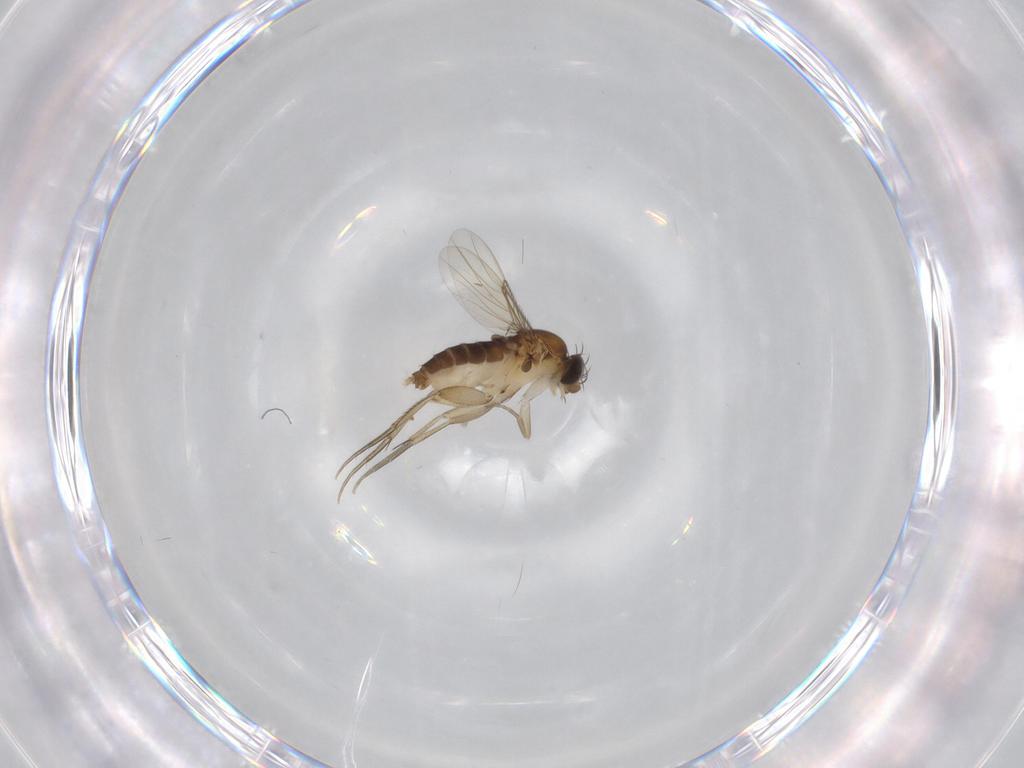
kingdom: Animalia
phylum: Arthropoda
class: Insecta
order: Diptera
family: Phoridae
